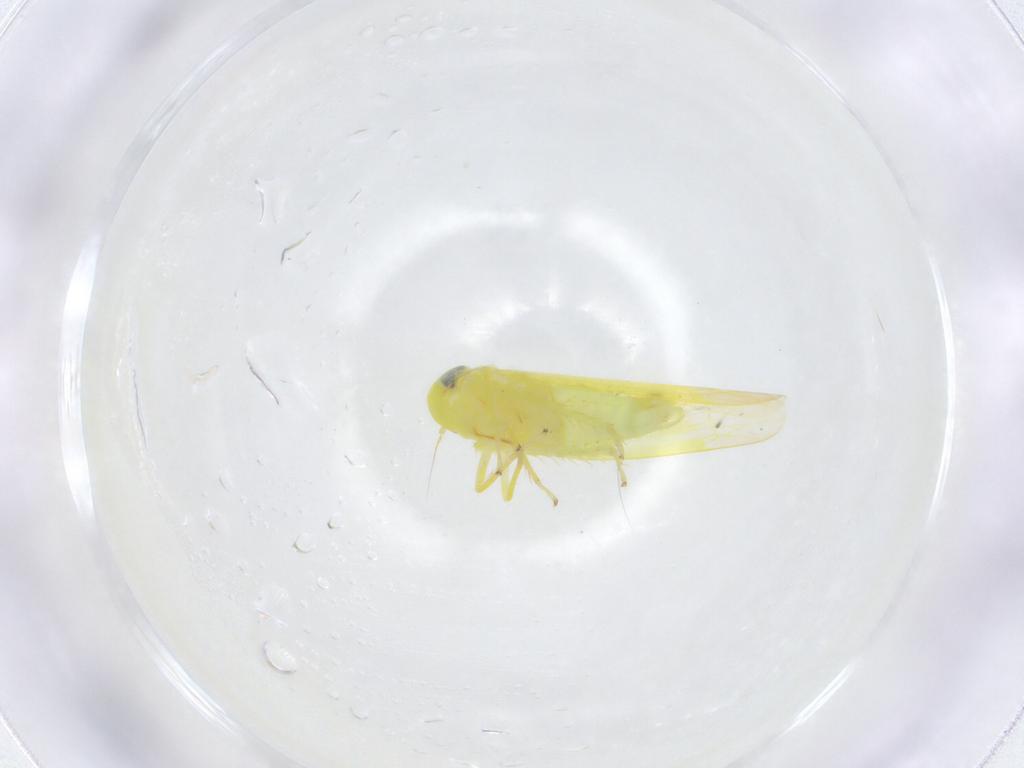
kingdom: Animalia
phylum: Arthropoda
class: Insecta
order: Hemiptera
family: Cicadellidae
